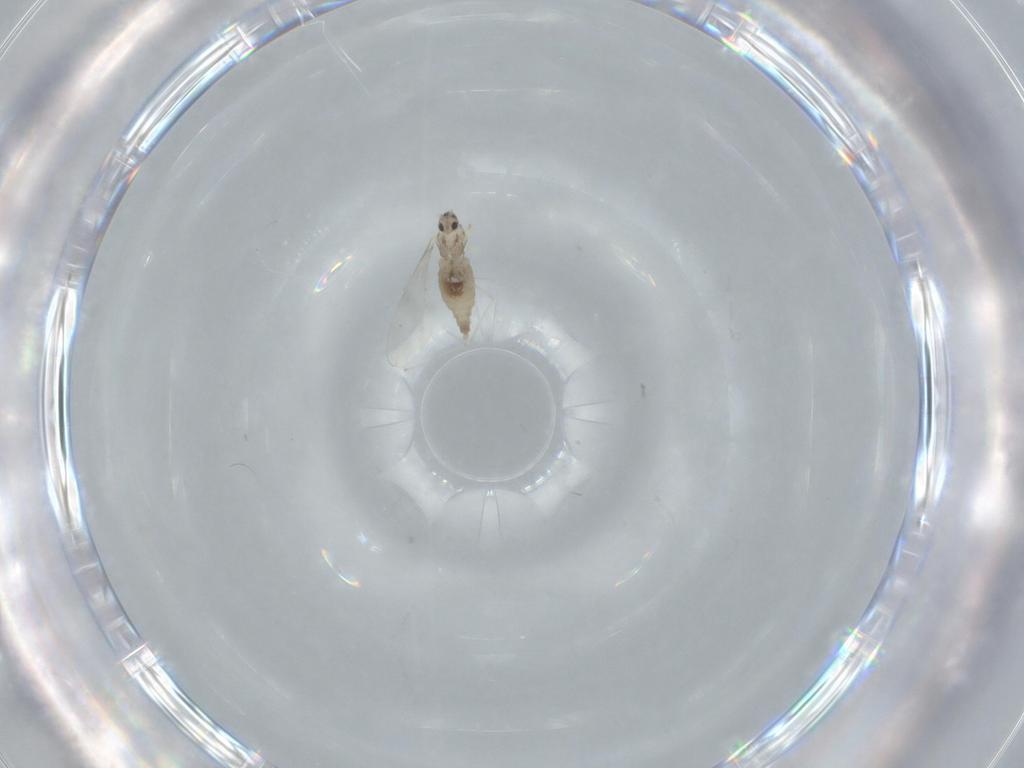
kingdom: Animalia
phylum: Arthropoda
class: Insecta
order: Diptera
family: Cecidomyiidae
